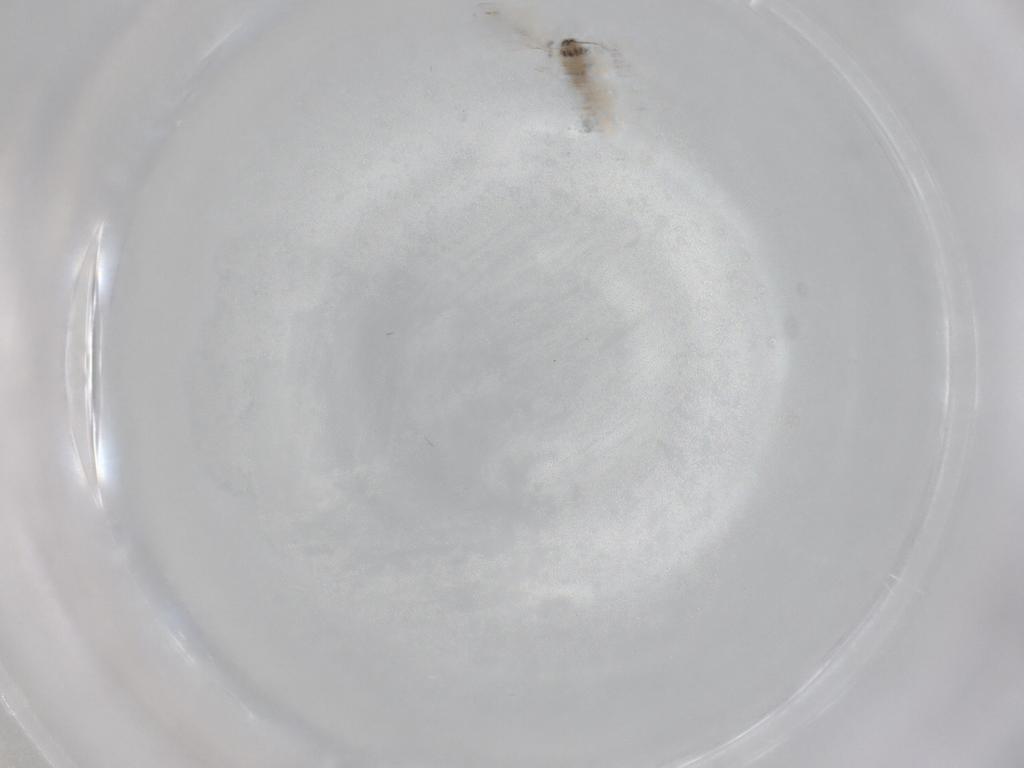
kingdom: Animalia
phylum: Arthropoda
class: Insecta
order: Diptera
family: Cecidomyiidae
